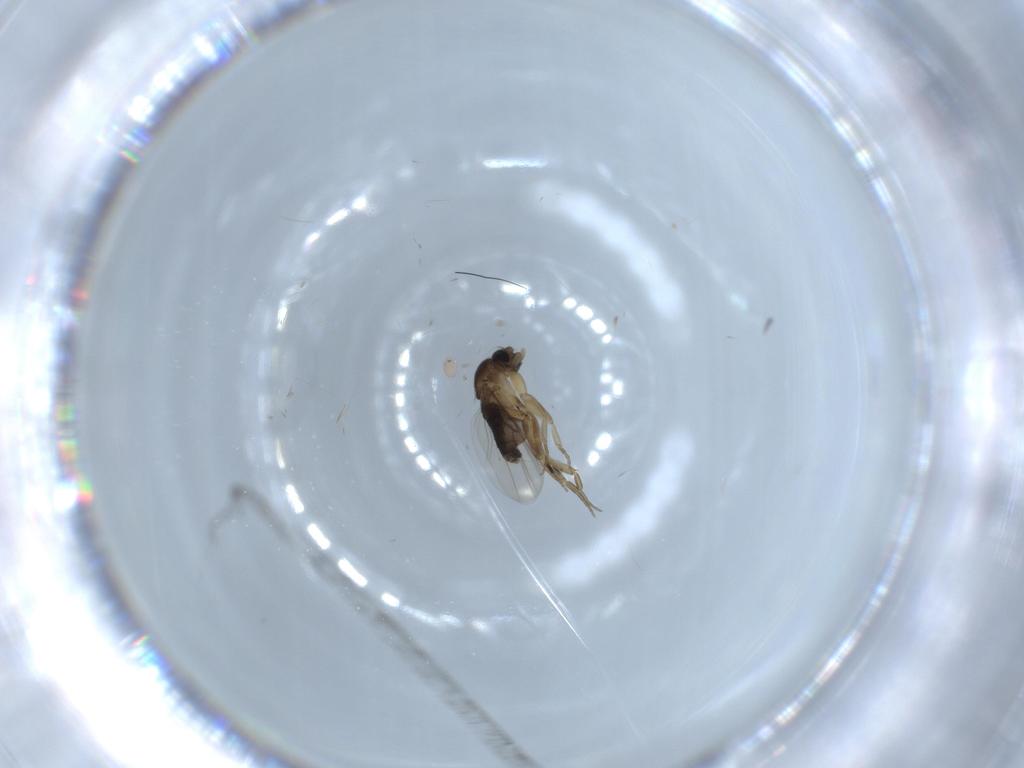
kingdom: Animalia
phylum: Arthropoda
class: Insecta
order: Diptera
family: Phoridae
